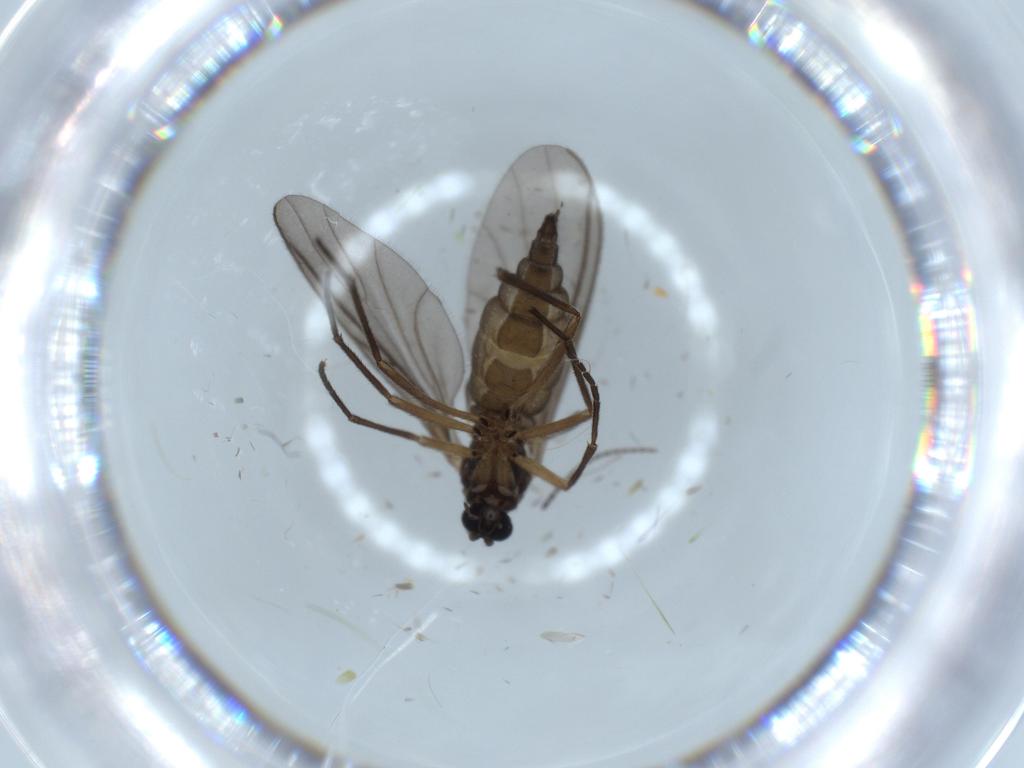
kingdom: Animalia
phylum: Arthropoda
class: Insecta
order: Diptera
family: Sciaridae
